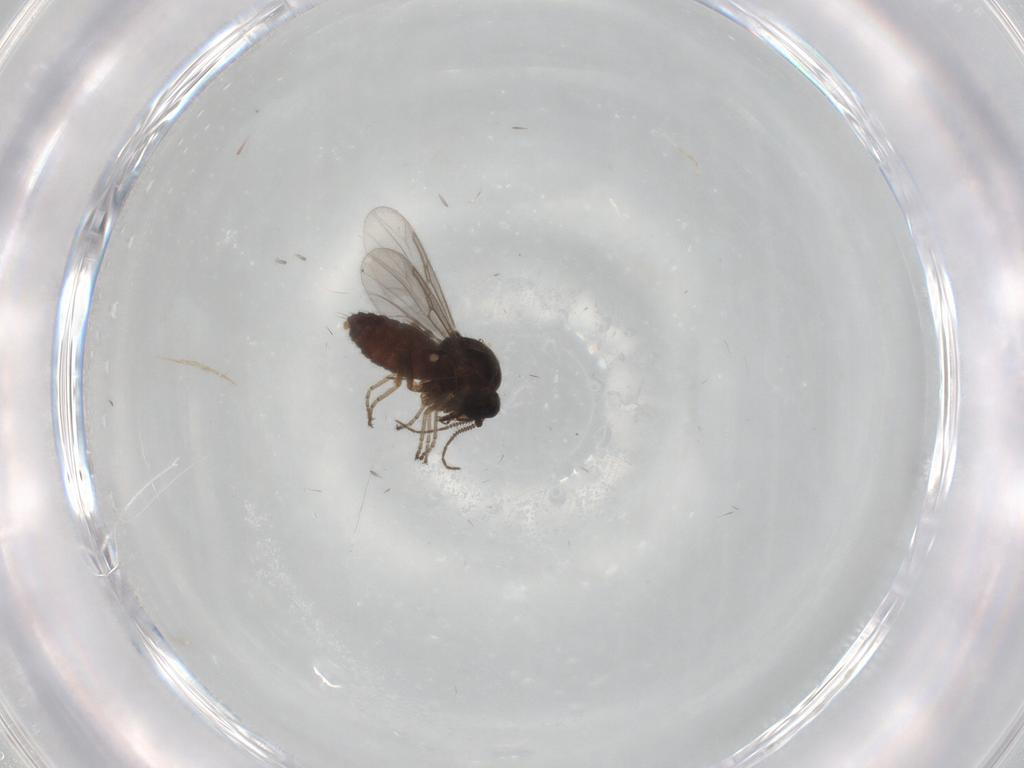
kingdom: Animalia
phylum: Arthropoda
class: Insecta
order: Diptera
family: Ceratopogonidae
